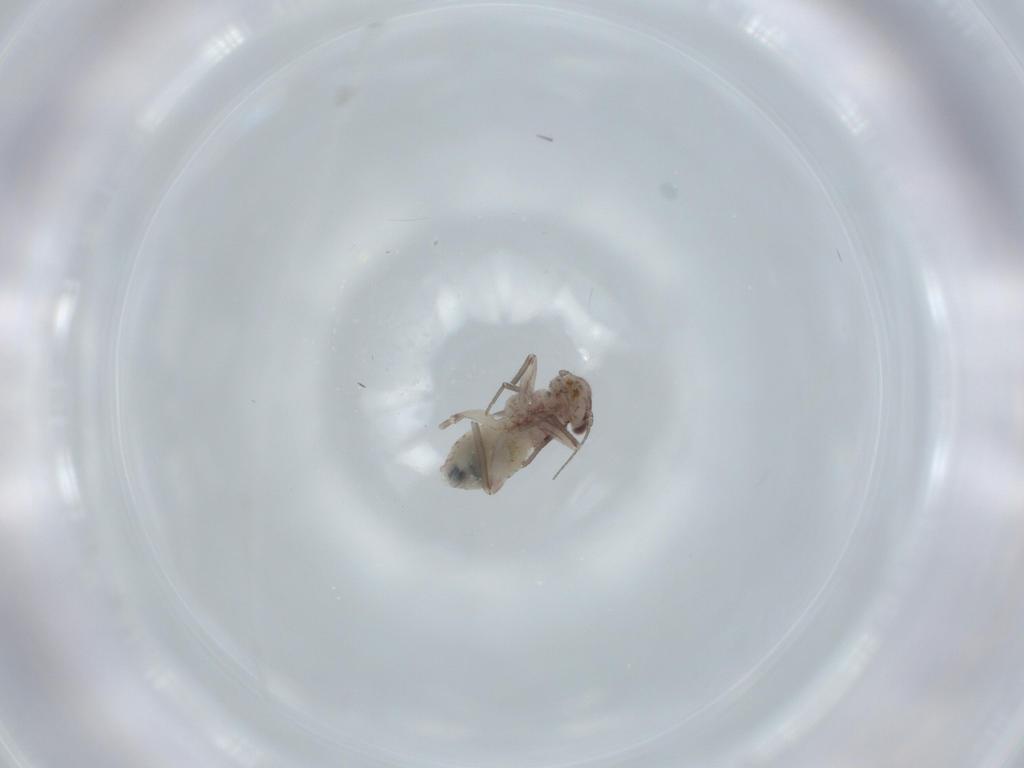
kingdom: Animalia
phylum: Arthropoda
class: Insecta
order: Psocodea
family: Lepidopsocidae
